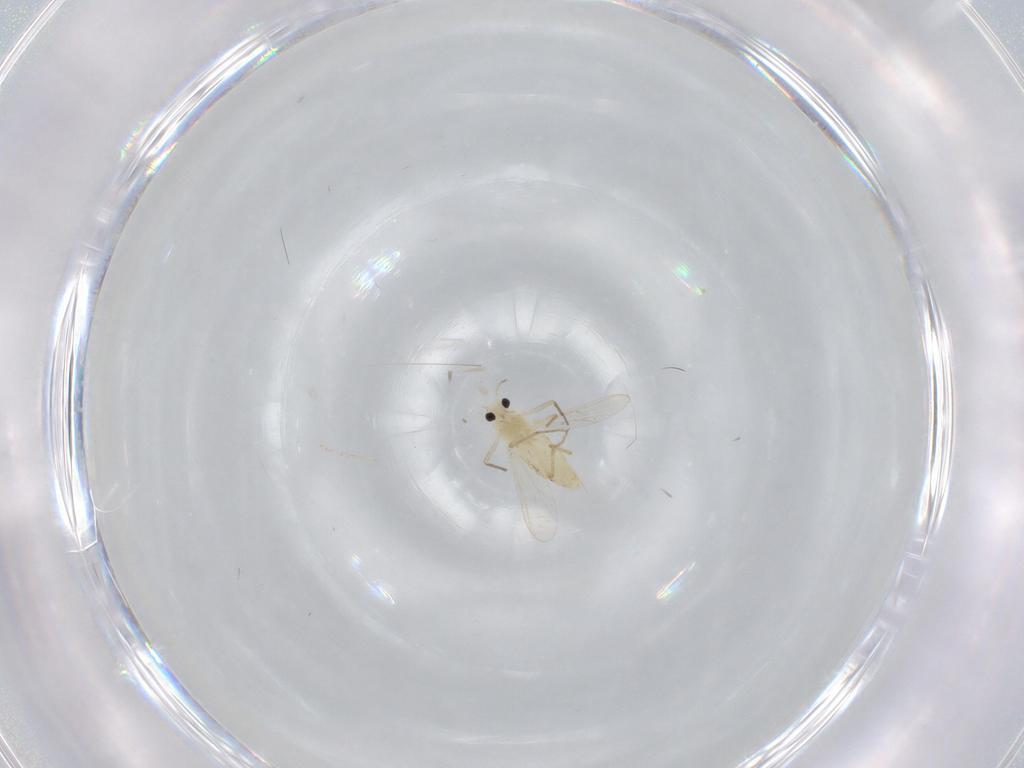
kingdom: Animalia
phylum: Arthropoda
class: Insecta
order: Diptera
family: Chironomidae
